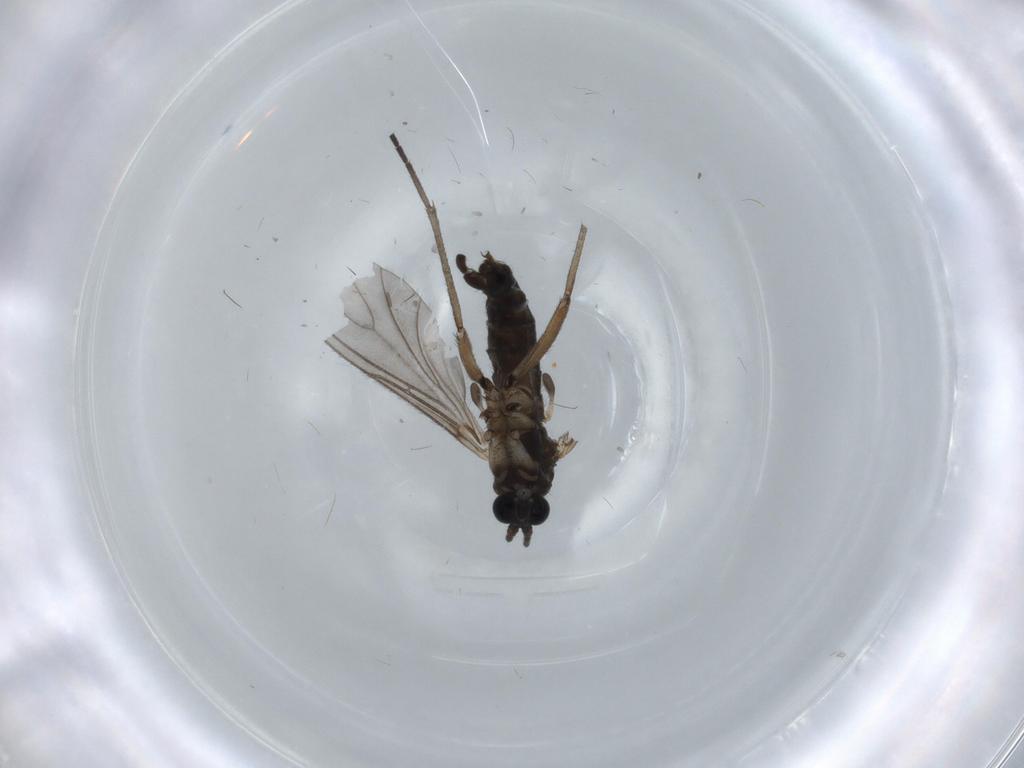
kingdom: Animalia
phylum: Arthropoda
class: Insecta
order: Diptera
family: Sciaridae
